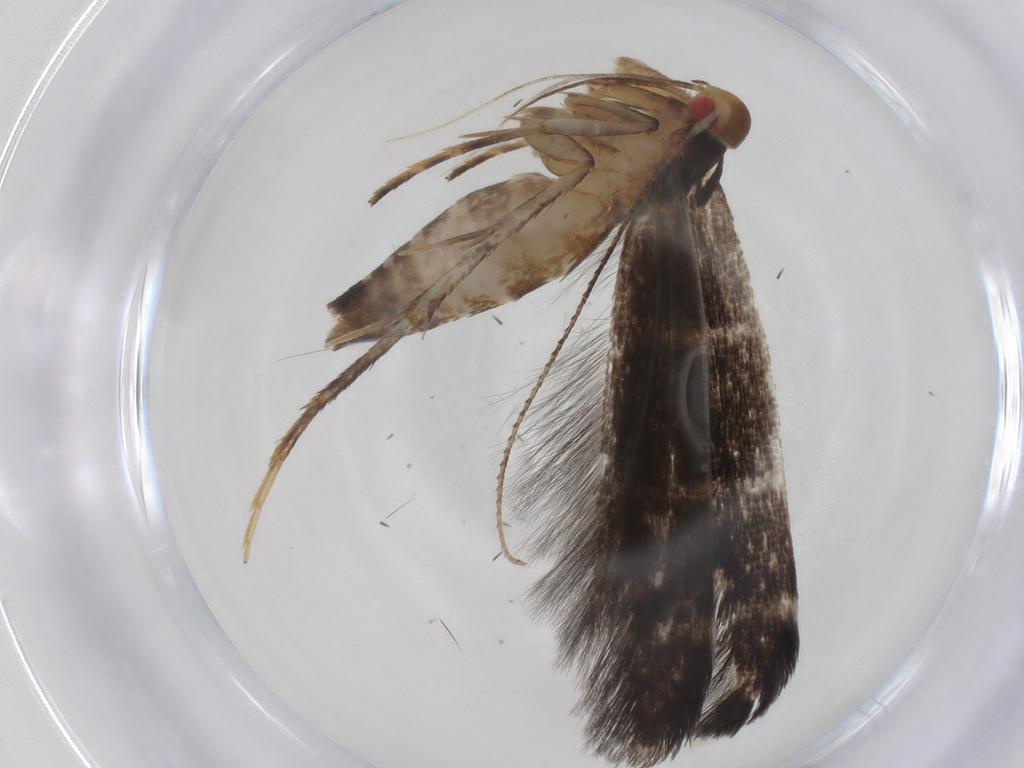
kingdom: Animalia
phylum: Arthropoda
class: Insecta
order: Lepidoptera
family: Cosmopterigidae
